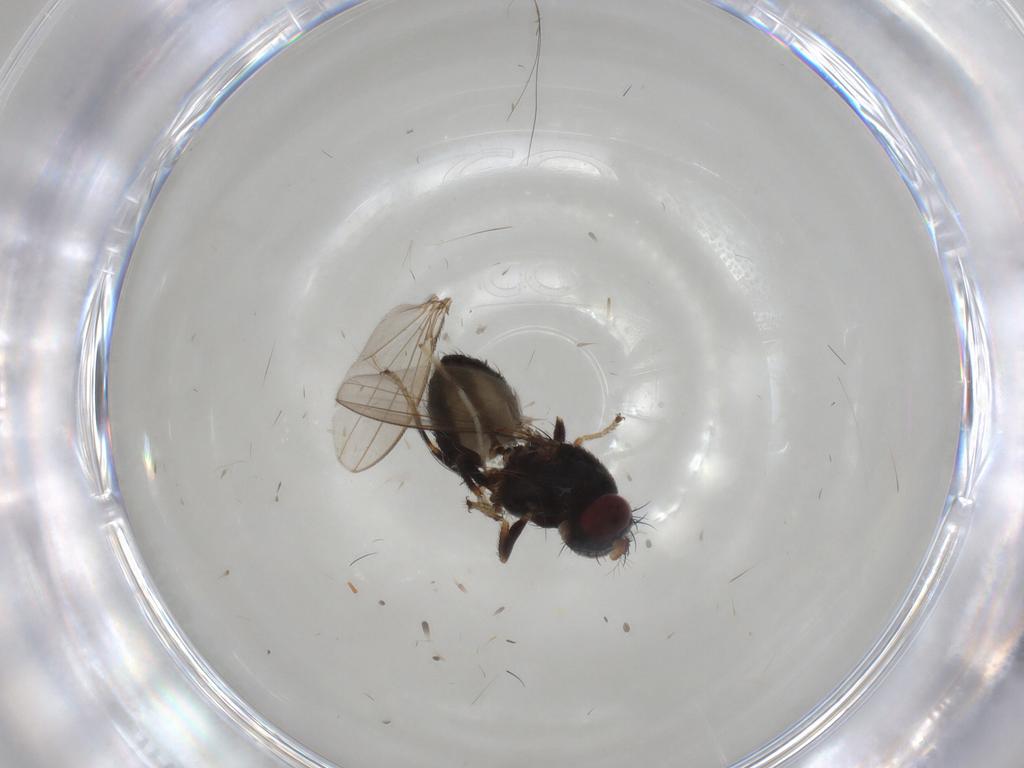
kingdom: Animalia
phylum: Arthropoda
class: Insecta
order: Diptera
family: Ephydridae
